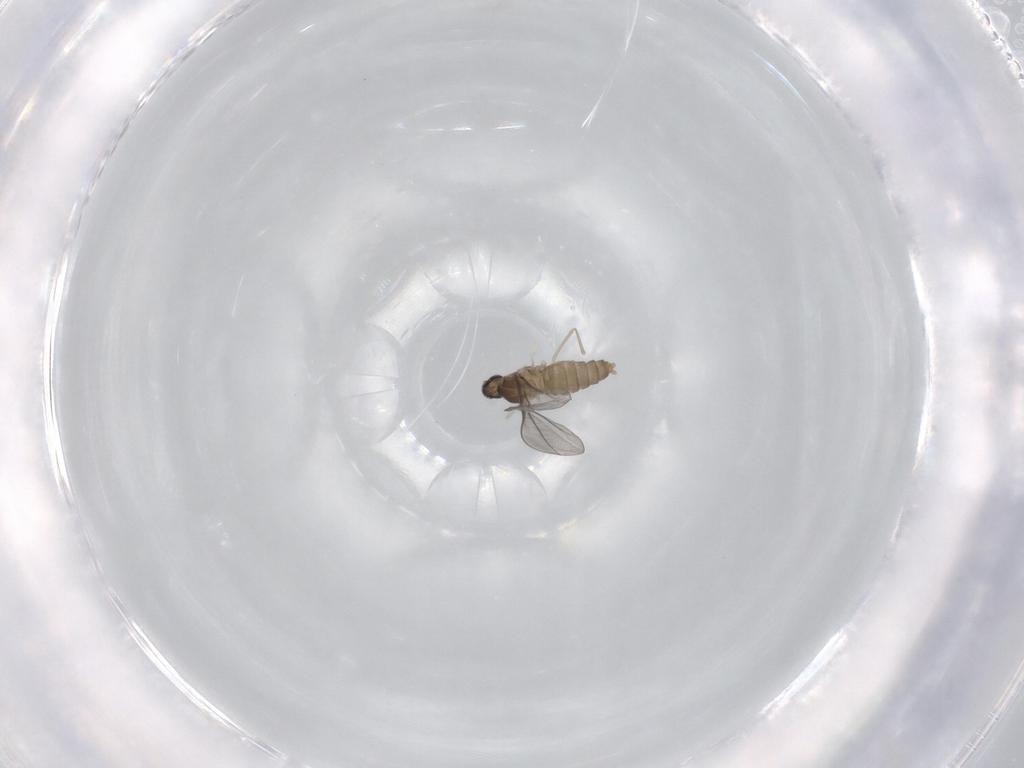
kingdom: Animalia
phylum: Arthropoda
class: Insecta
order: Diptera
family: Cecidomyiidae
